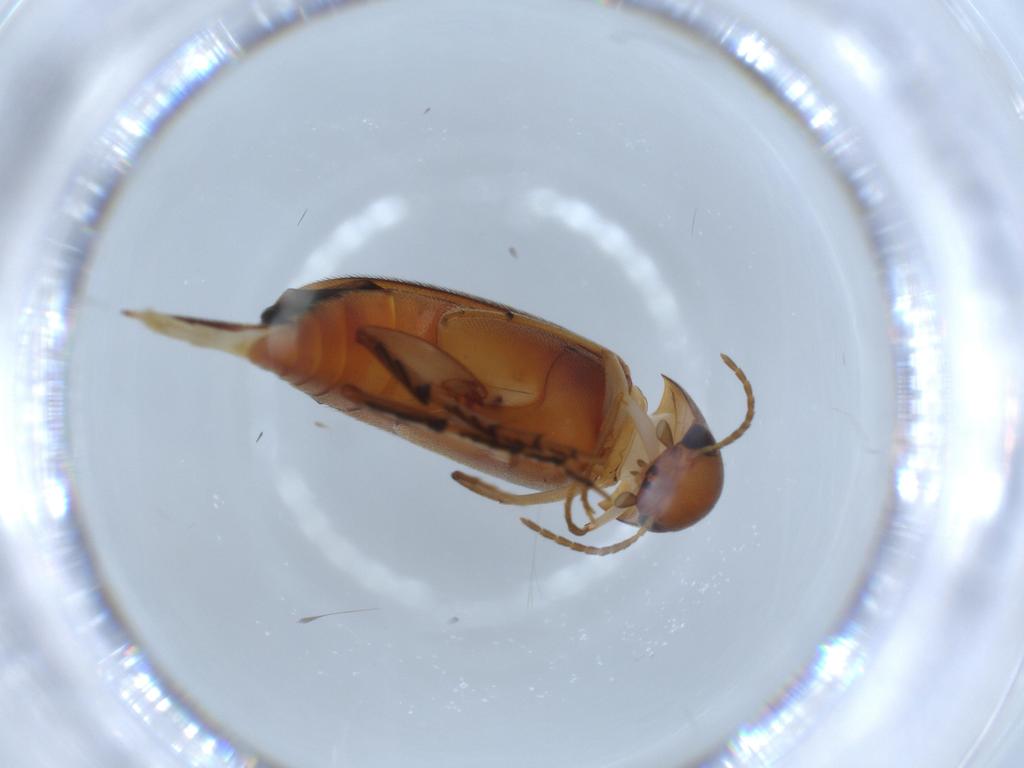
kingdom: Animalia
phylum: Arthropoda
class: Insecta
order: Coleoptera
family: Mordellidae
